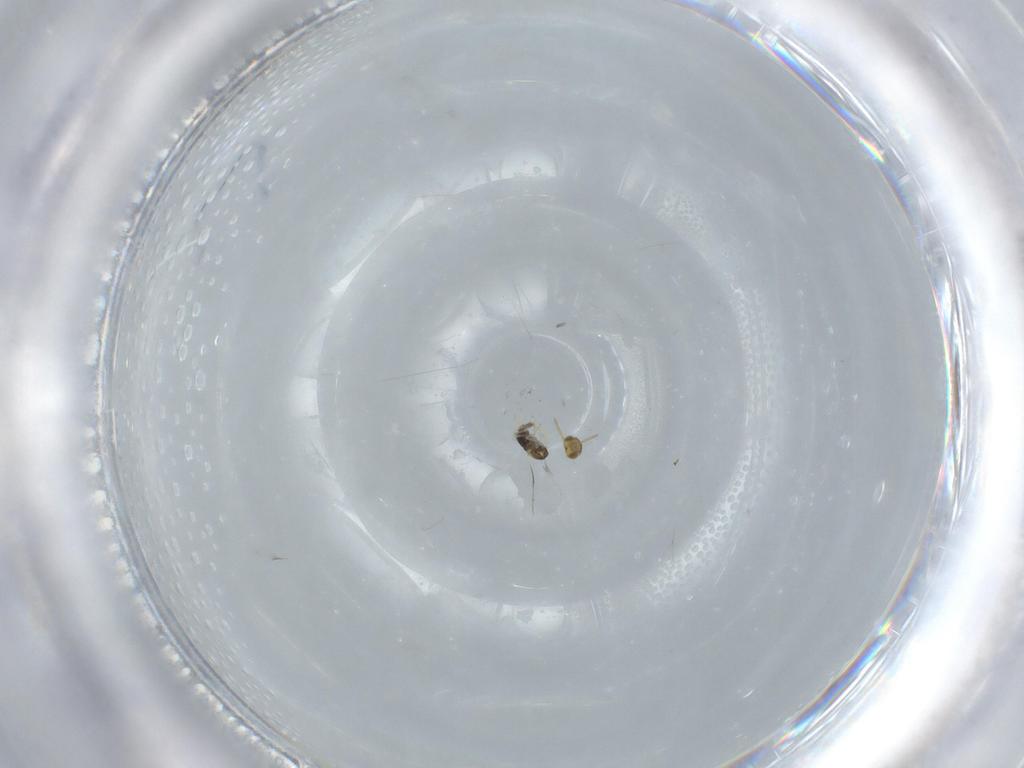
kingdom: Animalia
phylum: Arthropoda
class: Insecta
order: Hymenoptera
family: Aphelinidae
